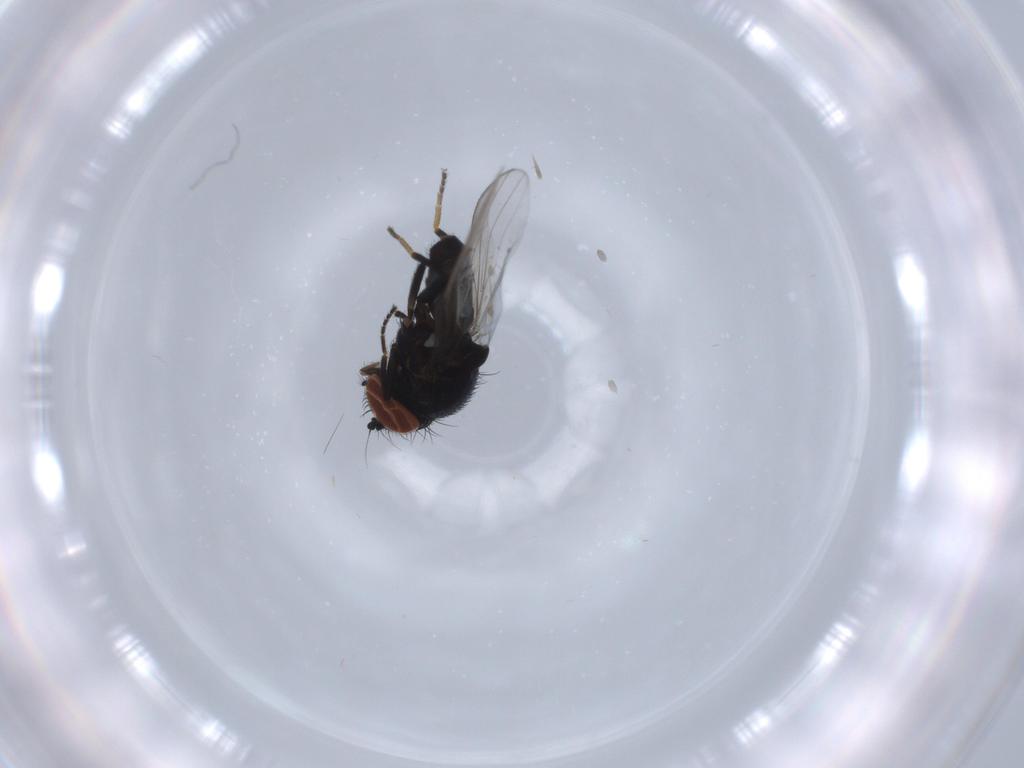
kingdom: Animalia
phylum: Arthropoda
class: Insecta
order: Diptera
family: Milichiidae
